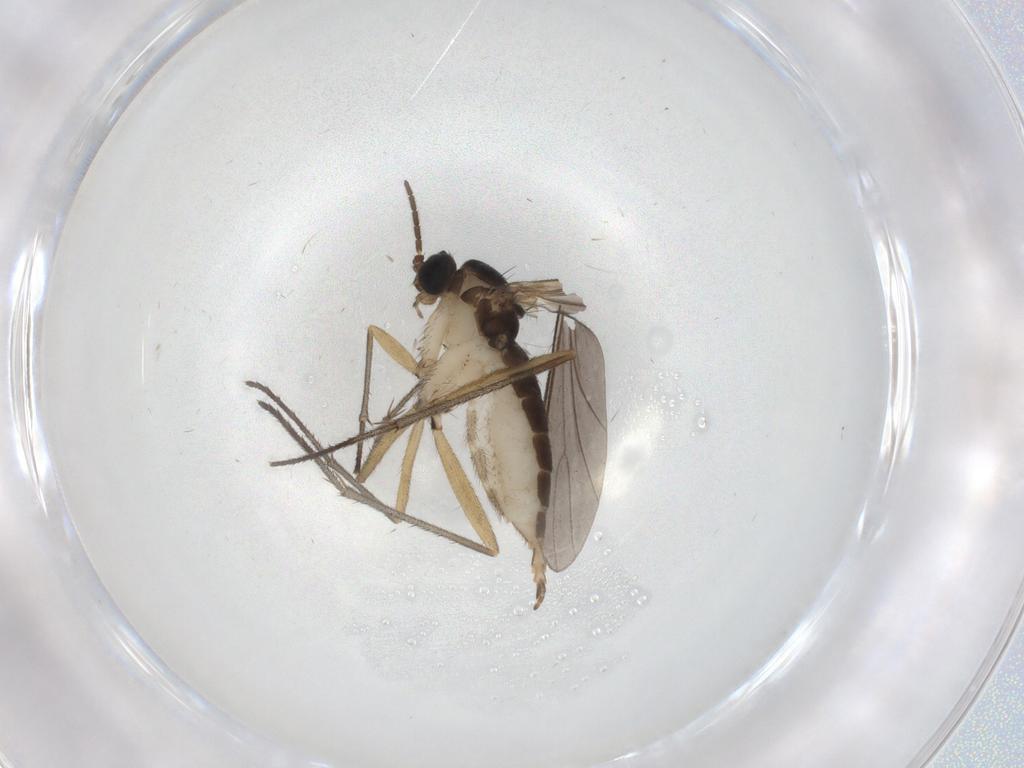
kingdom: Animalia
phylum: Arthropoda
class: Insecta
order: Diptera
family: Sciaridae
